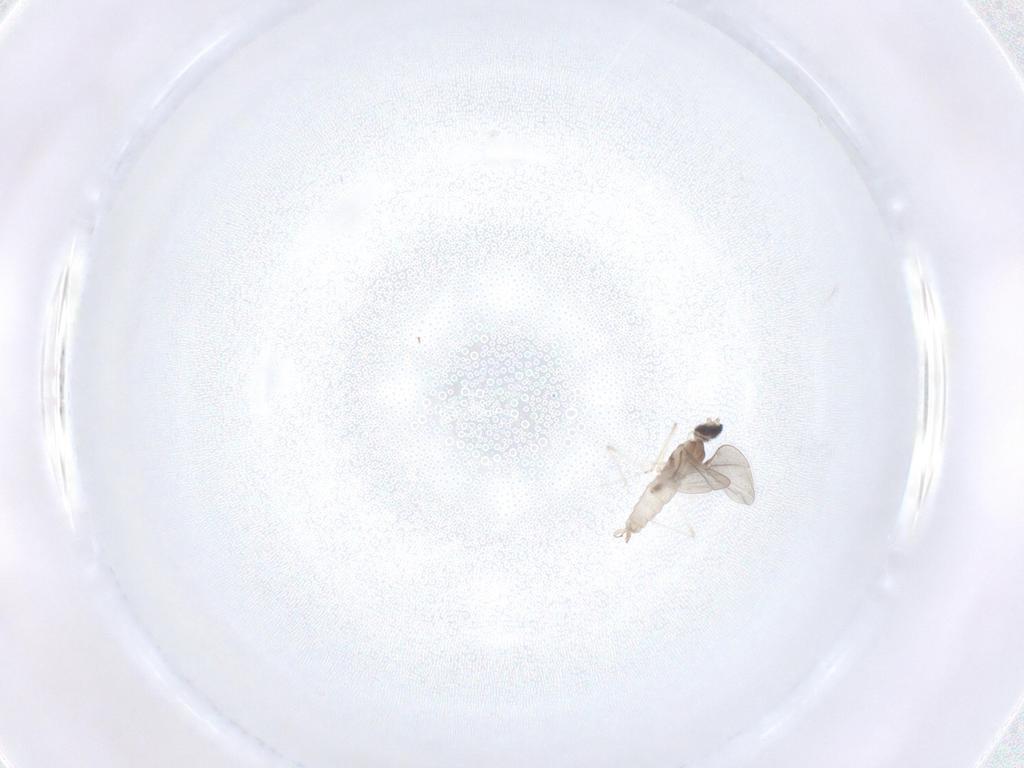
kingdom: Animalia
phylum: Arthropoda
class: Insecta
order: Diptera
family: Cecidomyiidae
